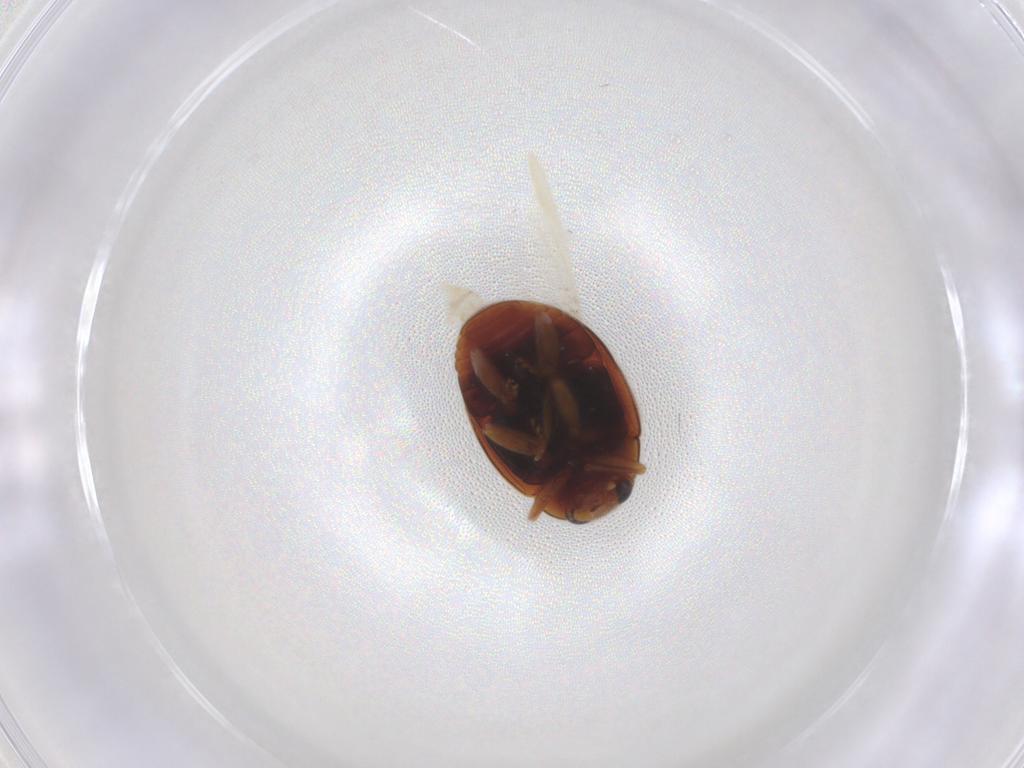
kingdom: Animalia
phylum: Arthropoda
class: Insecta
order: Coleoptera
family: Coccinellidae
